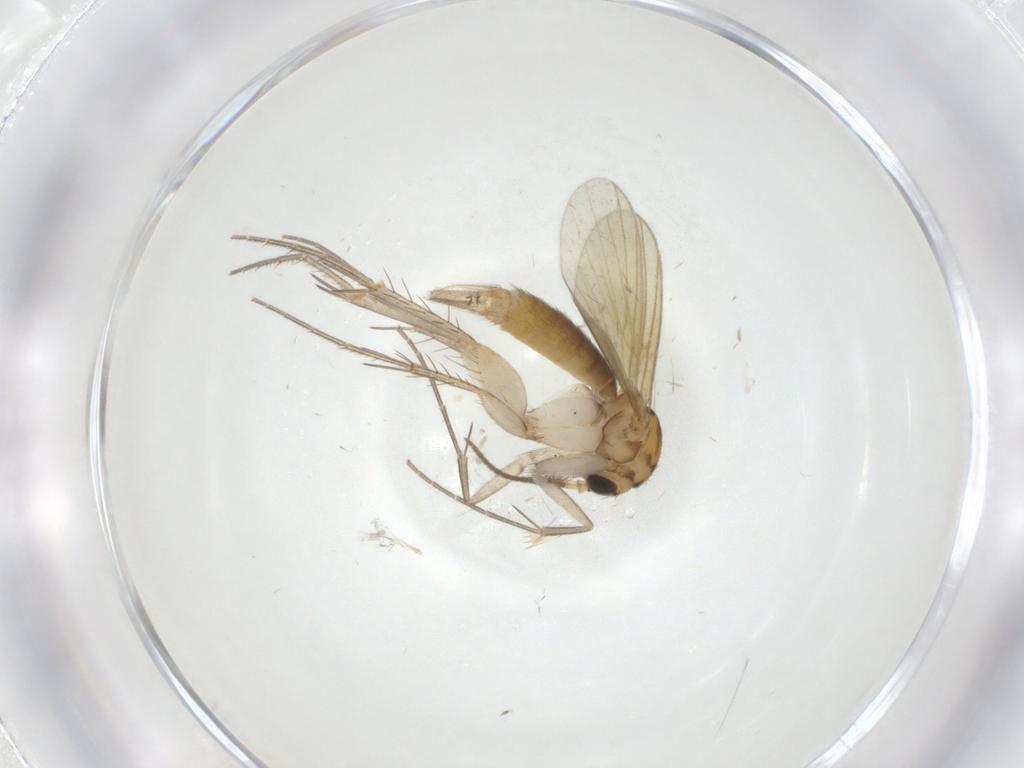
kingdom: Animalia
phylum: Arthropoda
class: Insecta
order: Diptera
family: Mycetophilidae
